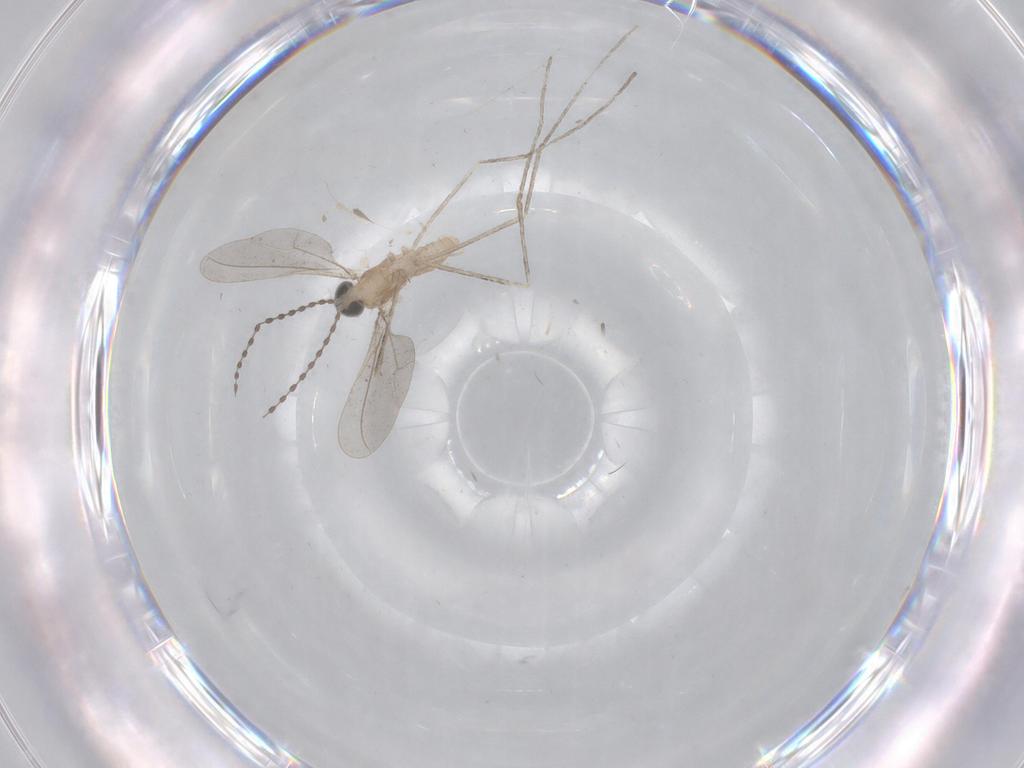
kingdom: Animalia
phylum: Arthropoda
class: Insecta
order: Diptera
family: Cecidomyiidae
